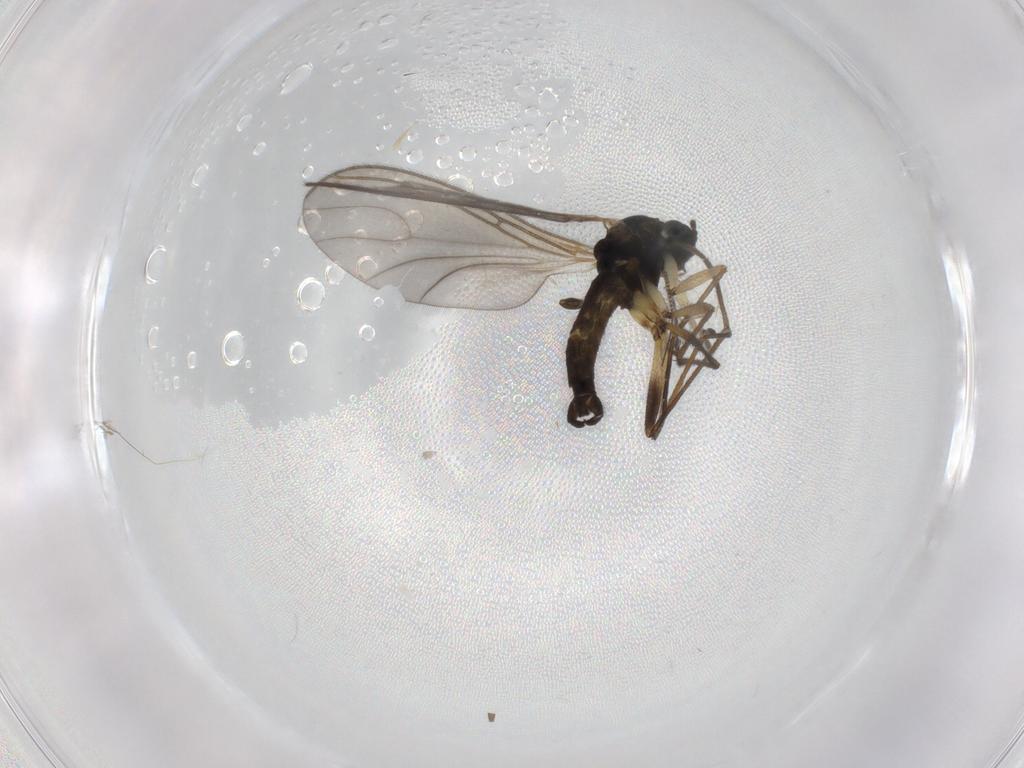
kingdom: Animalia
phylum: Arthropoda
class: Insecta
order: Diptera
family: Sciaridae
